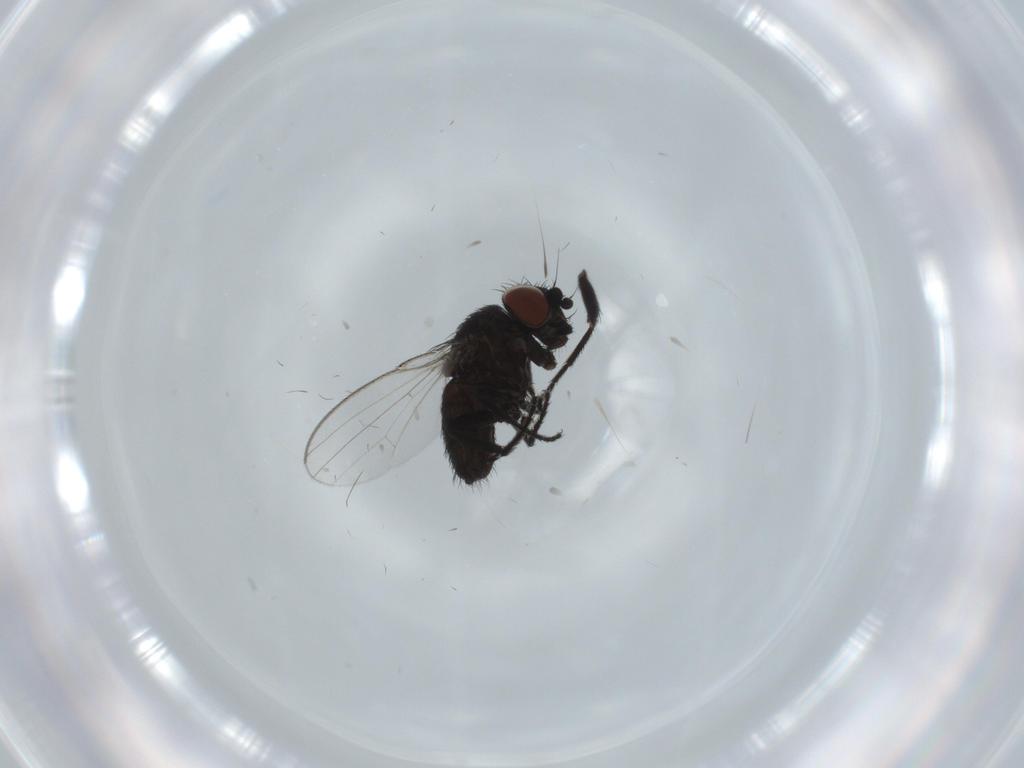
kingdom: Animalia
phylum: Arthropoda
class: Insecta
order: Diptera
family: Milichiidae
